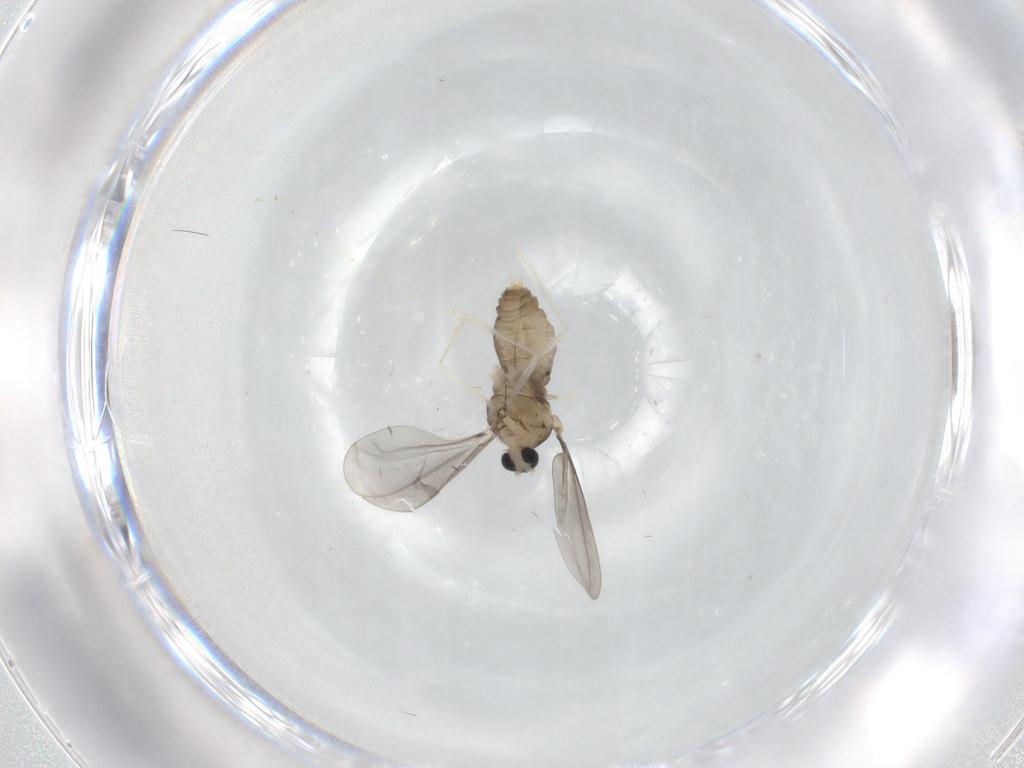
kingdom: Animalia
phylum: Arthropoda
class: Insecta
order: Diptera
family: Cecidomyiidae
